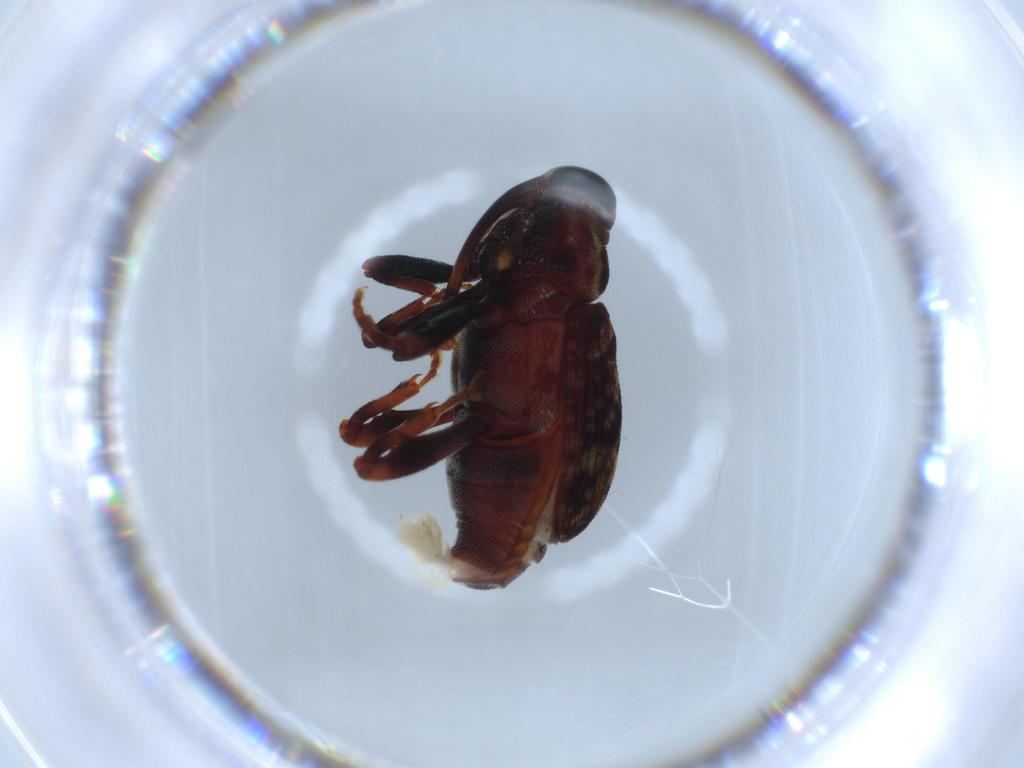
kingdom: Animalia
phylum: Arthropoda
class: Insecta
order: Coleoptera
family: Curculionidae
